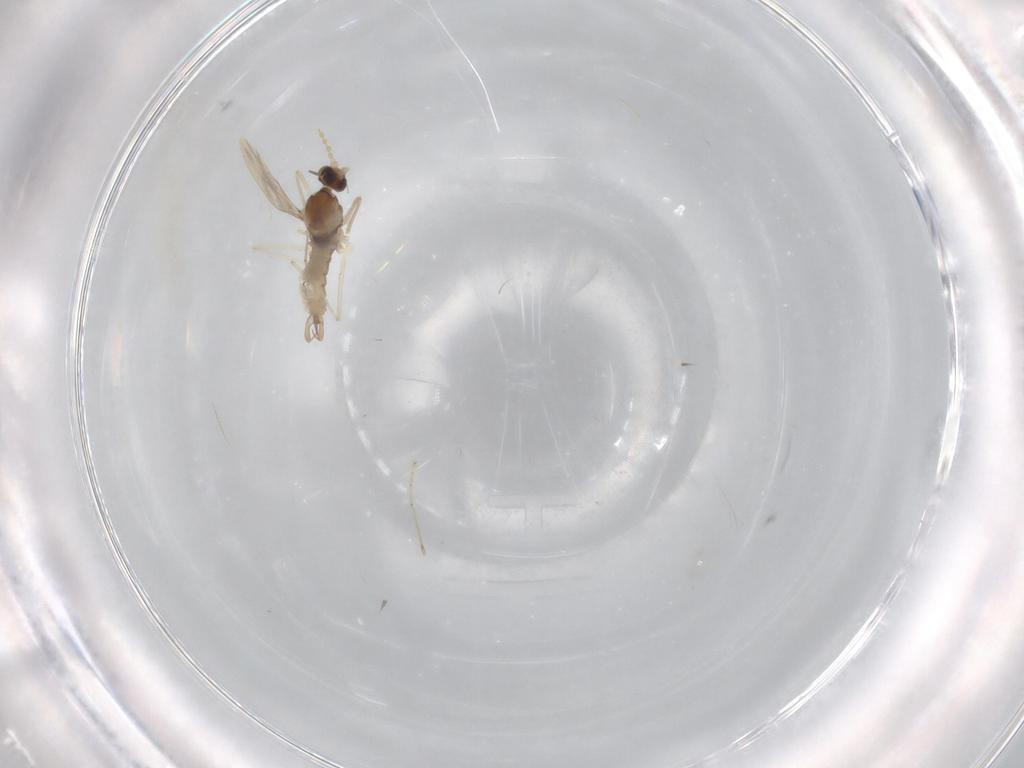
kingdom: Animalia
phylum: Arthropoda
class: Insecta
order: Diptera
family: Cecidomyiidae
